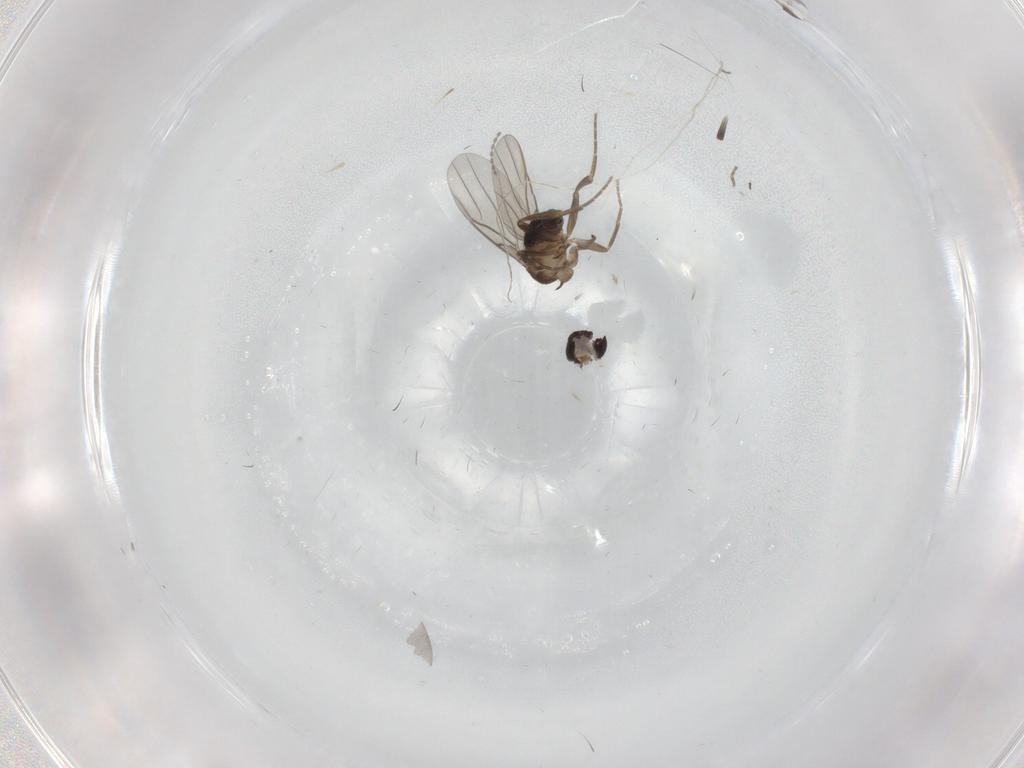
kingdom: Animalia
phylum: Arthropoda
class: Insecta
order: Diptera
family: Phoridae
